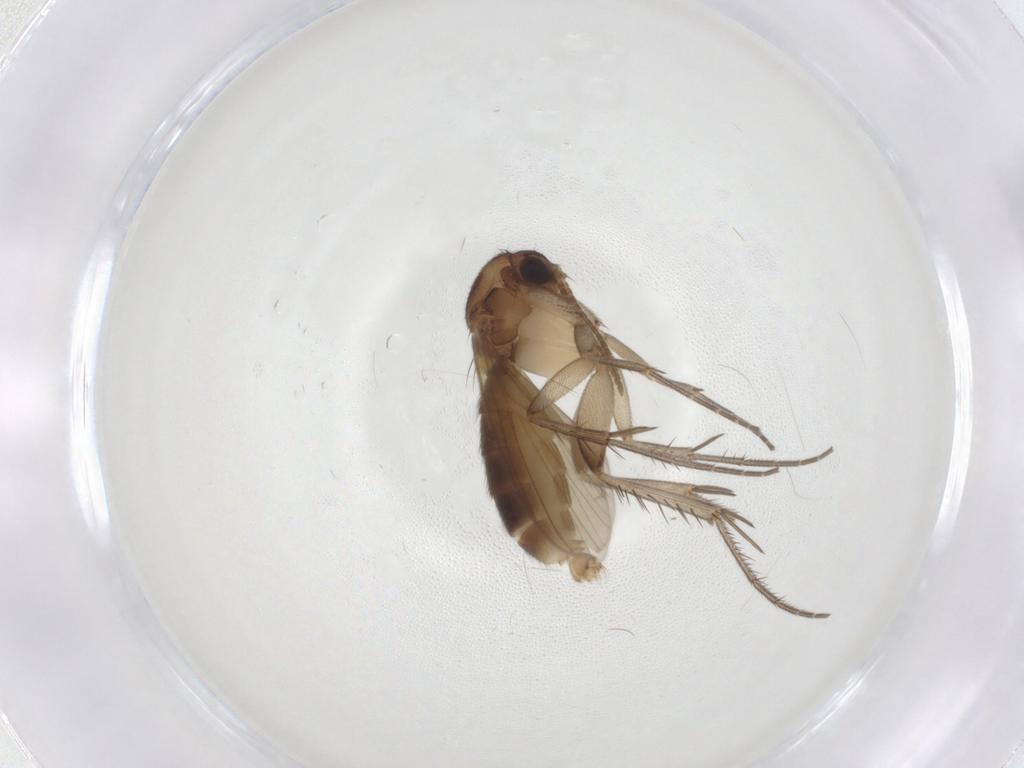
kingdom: Animalia
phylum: Arthropoda
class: Insecta
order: Diptera
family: Mycetophilidae
